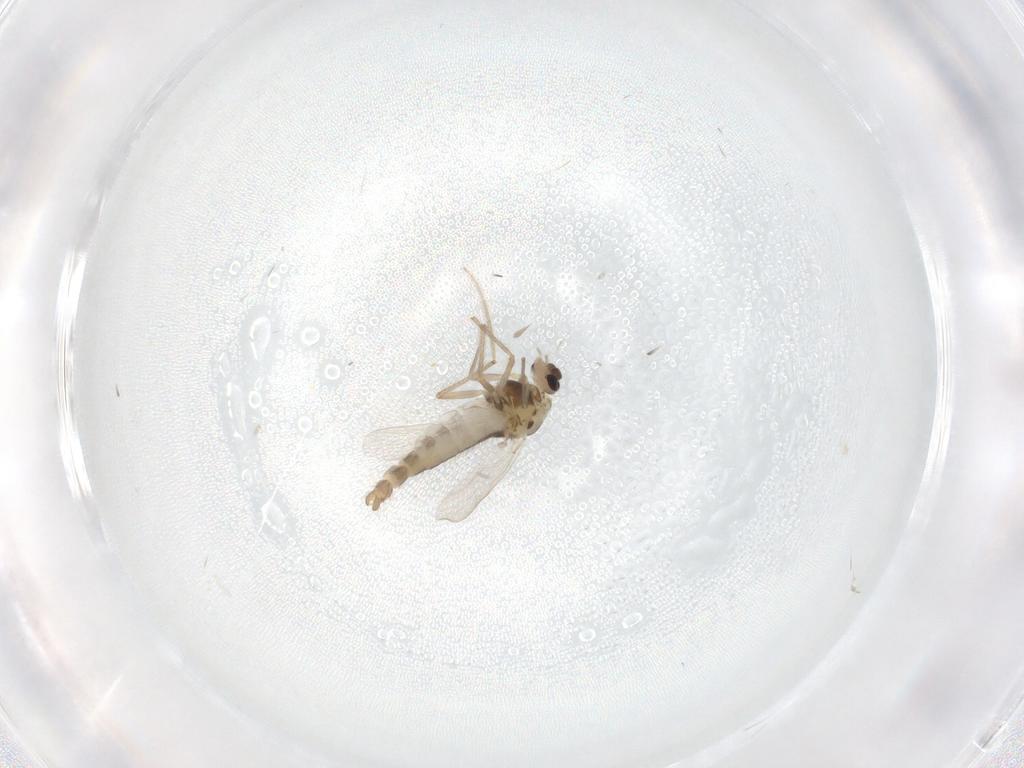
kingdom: Animalia
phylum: Arthropoda
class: Insecta
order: Diptera
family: Chironomidae
